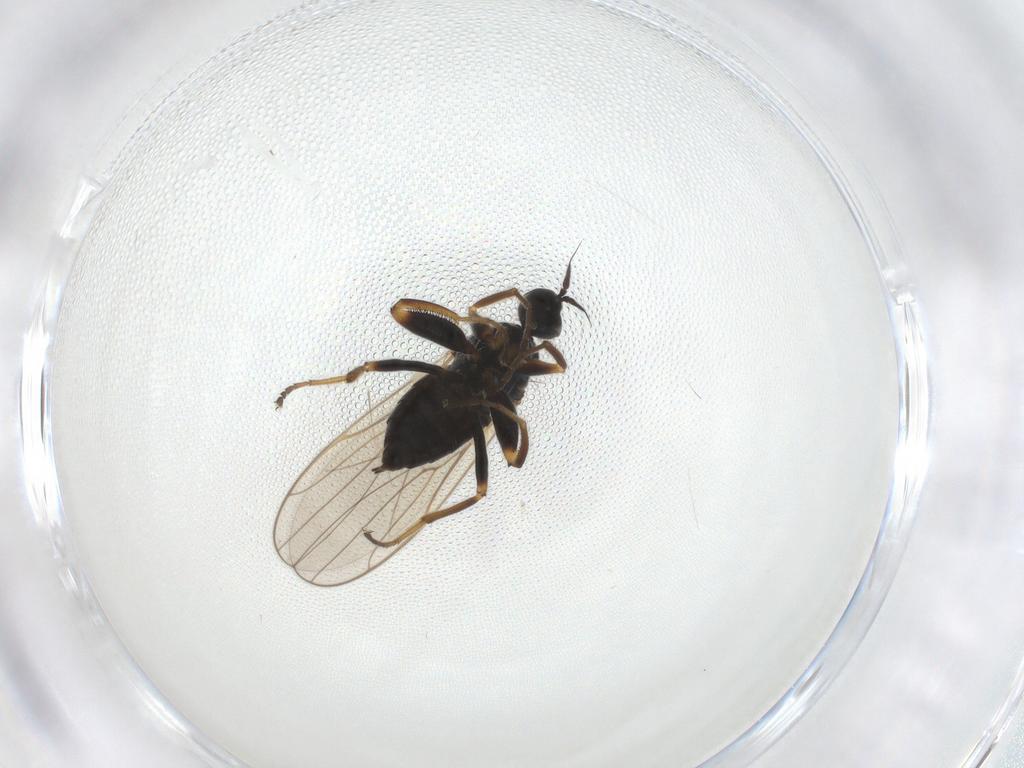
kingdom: Animalia
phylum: Arthropoda
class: Insecta
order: Diptera
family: Hybotidae
